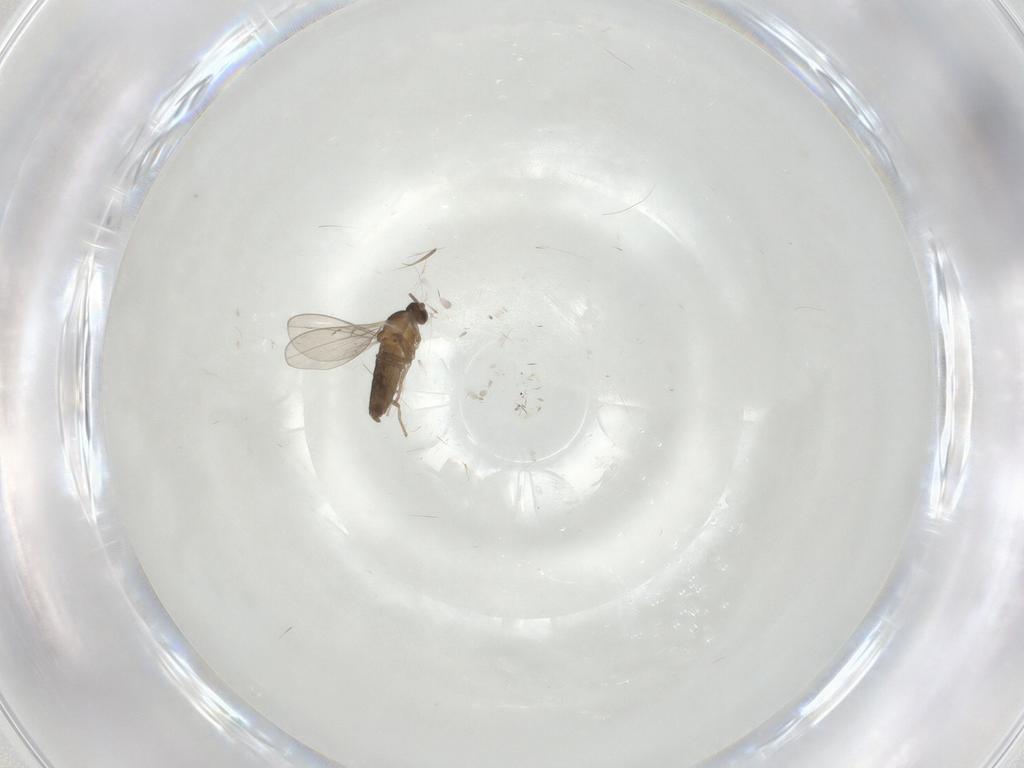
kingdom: Animalia
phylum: Arthropoda
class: Insecta
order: Diptera
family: Cecidomyiidae
